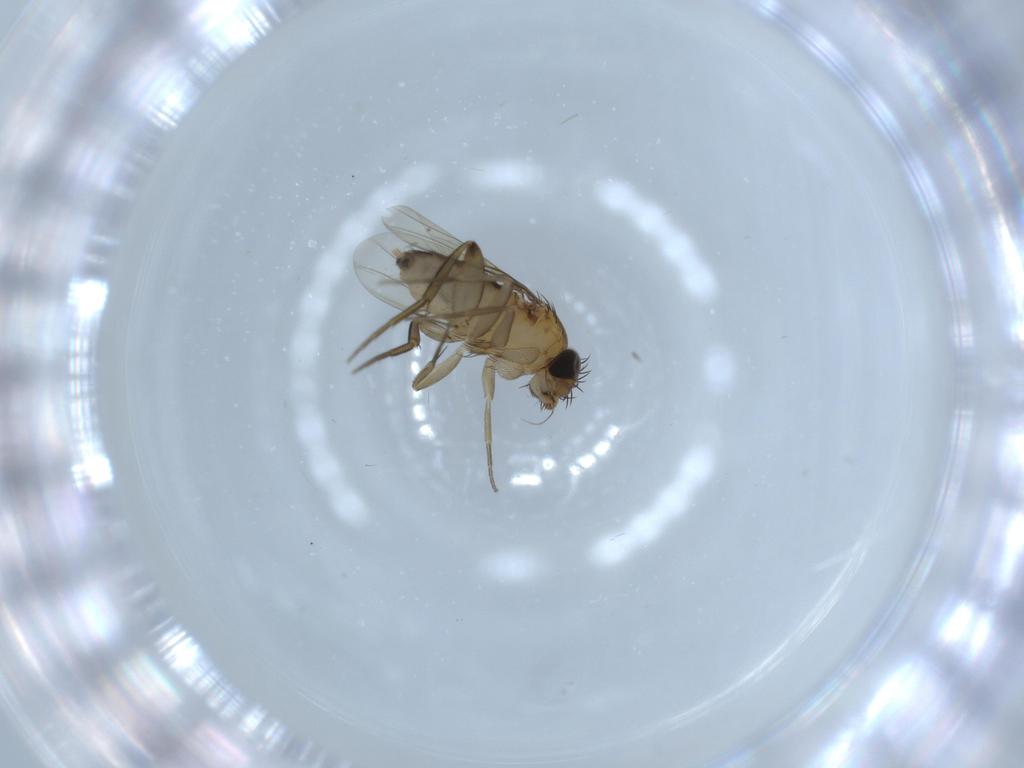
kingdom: Animalia
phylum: Arthropoda
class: Insecta
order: Diptera
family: Phoridae
